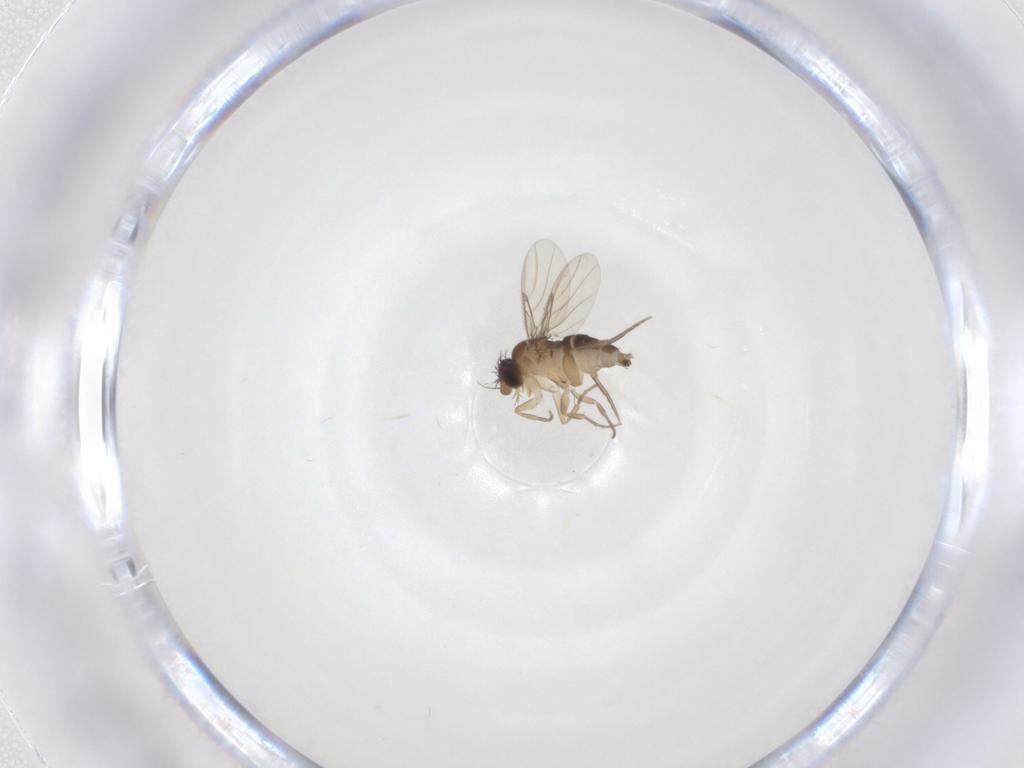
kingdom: Animalia
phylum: Arthropoda
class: Insecta
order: Diptera
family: Phoridae
